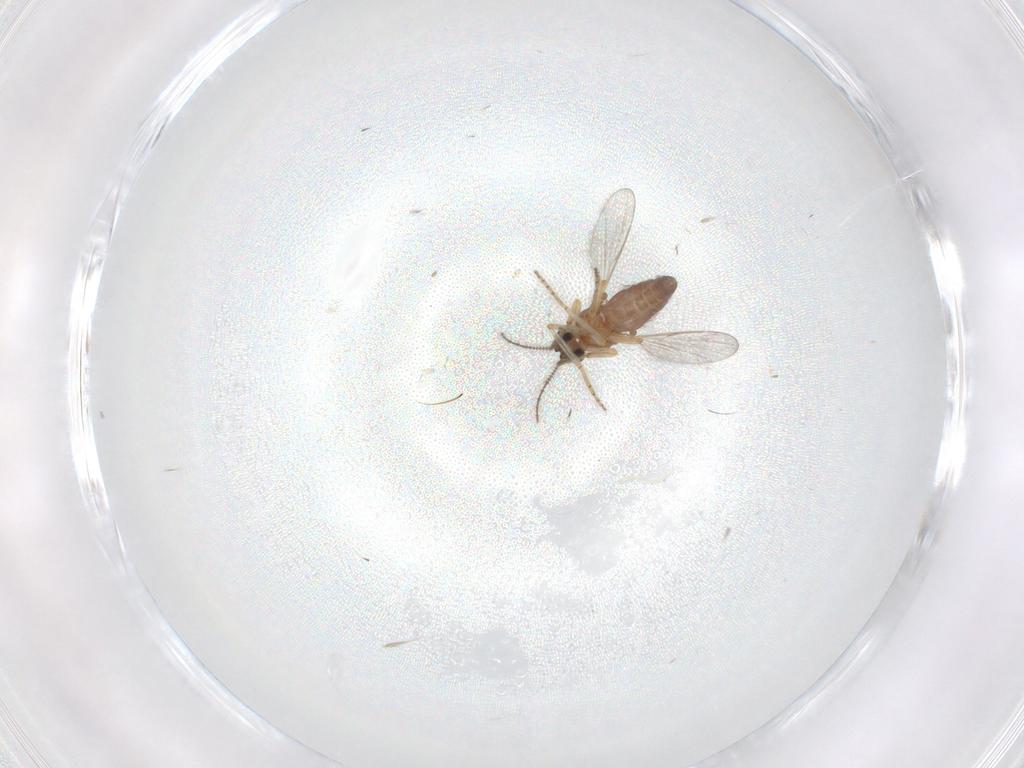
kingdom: Animalia
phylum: Arthropoda
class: Insecta
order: Diptera
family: Ceratopogonidae
